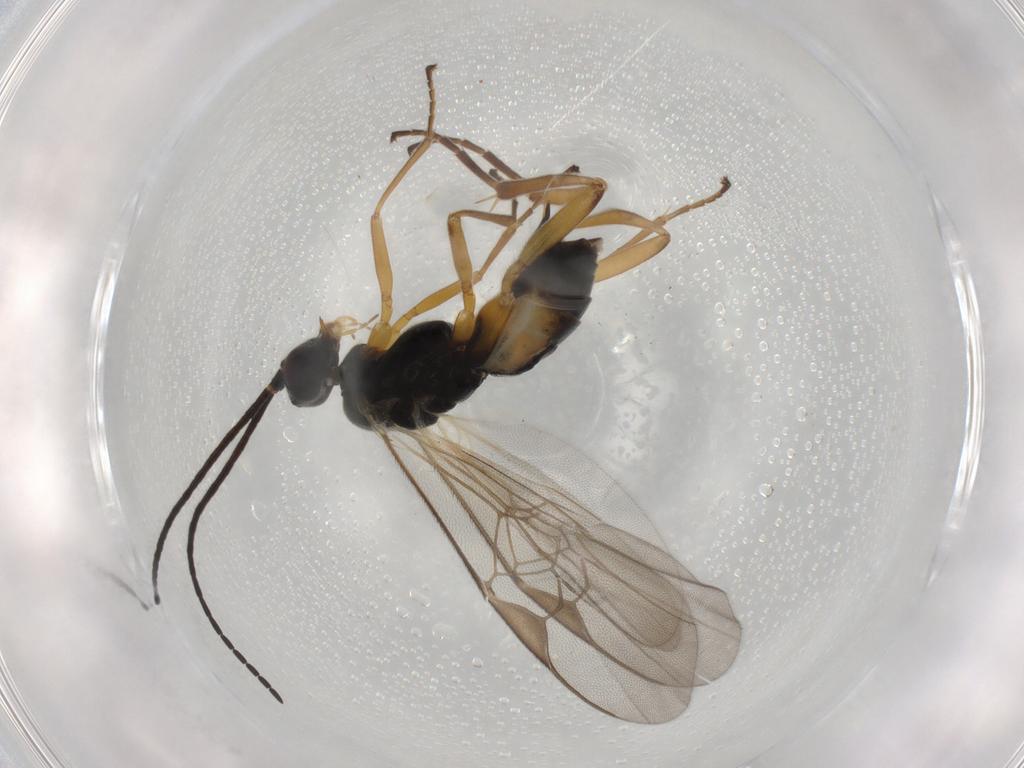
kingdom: Animalia
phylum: Arthropoda
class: Insecta
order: Hymenoptera
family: Braconidae
